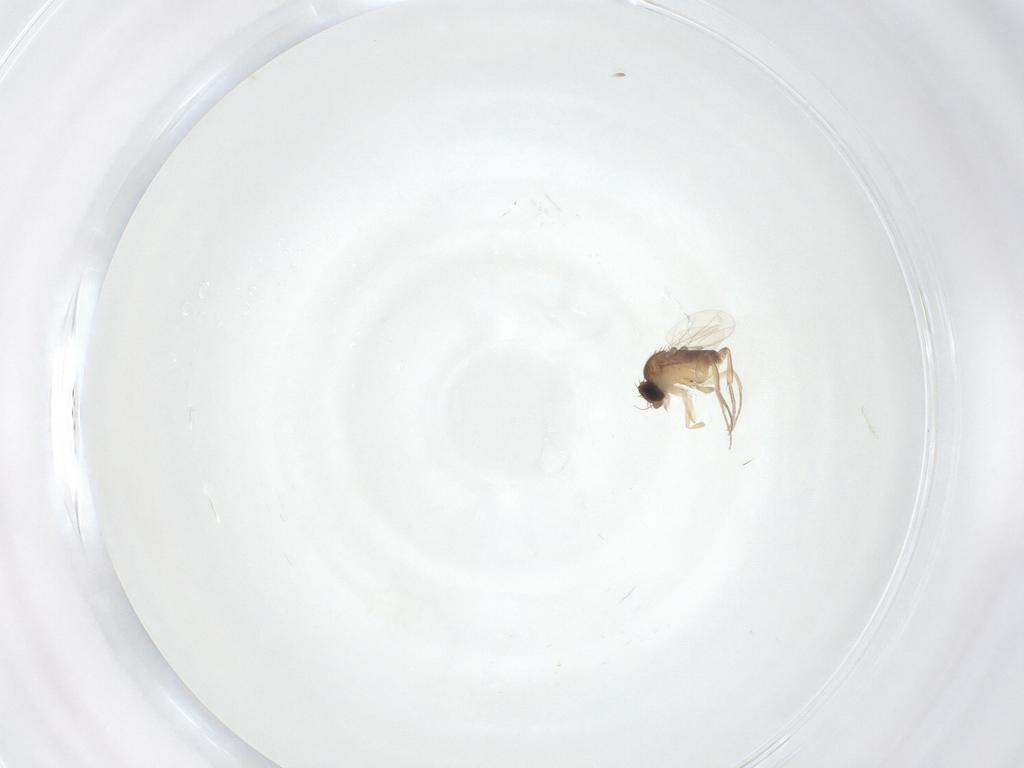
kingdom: Animalia
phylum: Arthropoda
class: Insecta
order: Diptera
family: Phoridae
